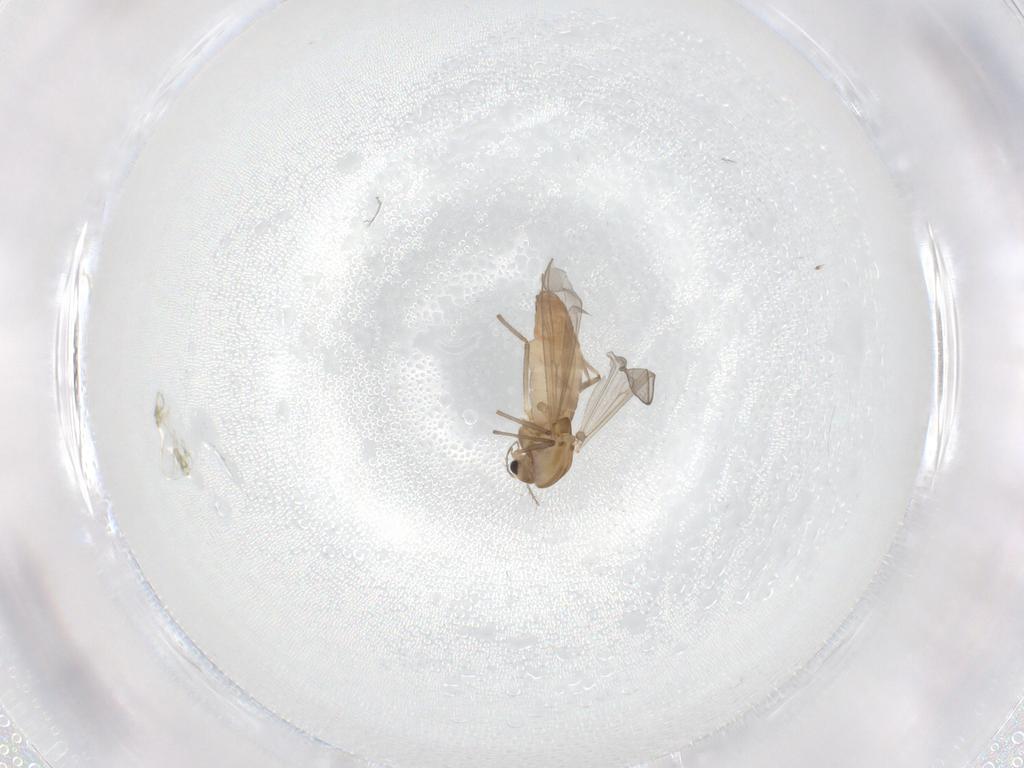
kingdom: Animalia
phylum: Arthropoda
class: Insecta
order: Diptera
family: Chironomidae
